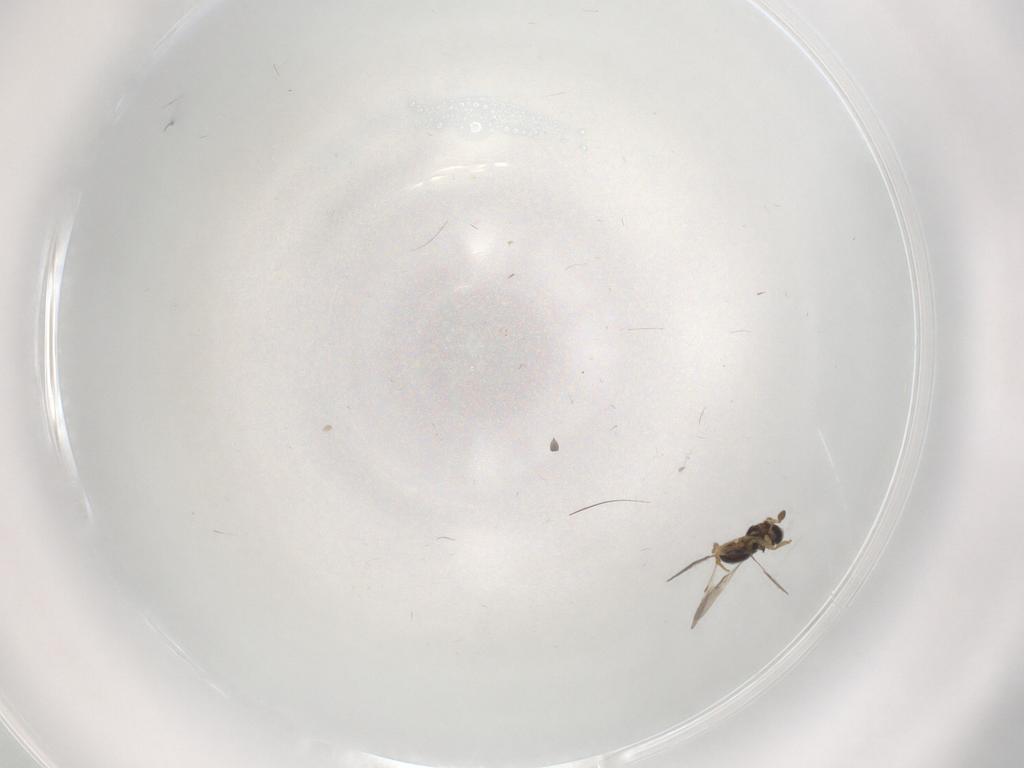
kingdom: Animalia
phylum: Arthropoda
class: Insecta
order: Hymenoptera
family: Scelionidae
